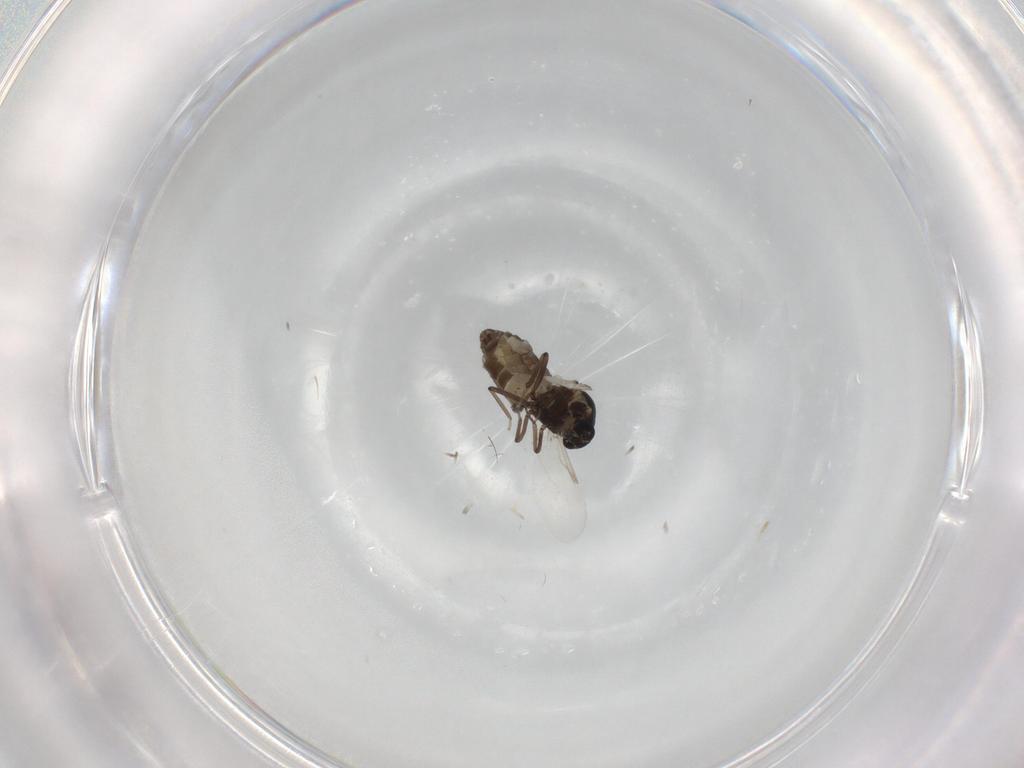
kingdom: Animalia
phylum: Arthropoda
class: Insecta
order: Diptera
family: Ceratopogonidae
